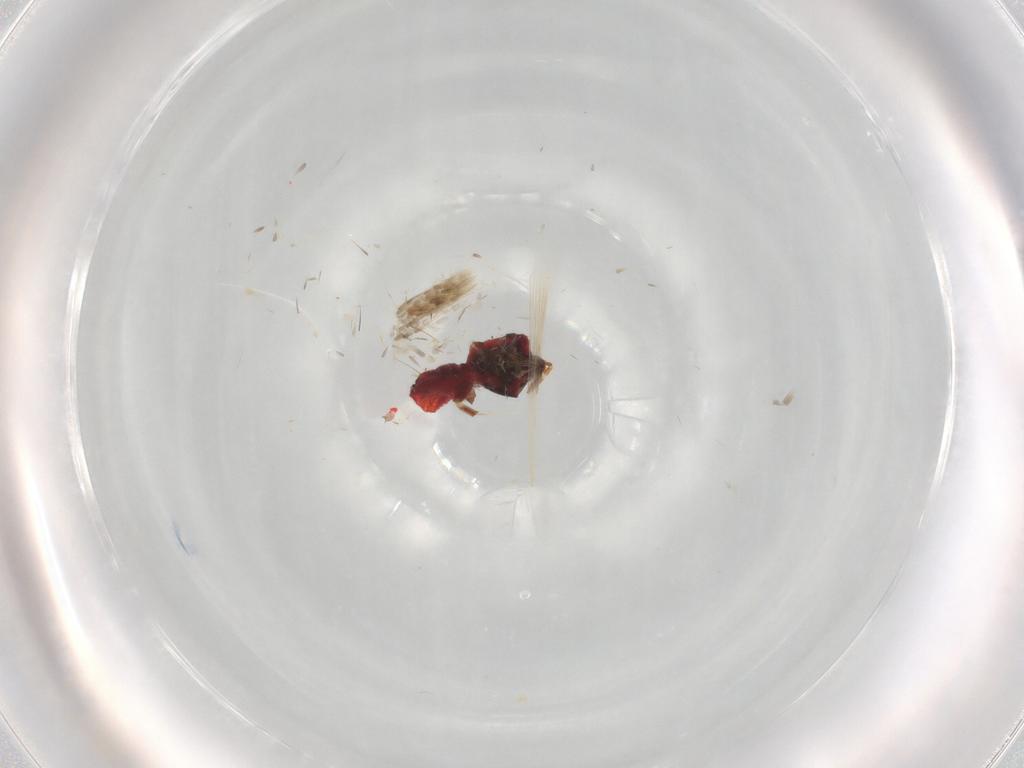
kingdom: Animalia
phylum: Arthropoda
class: Insecta
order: Hemiptera
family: Geocoridae
